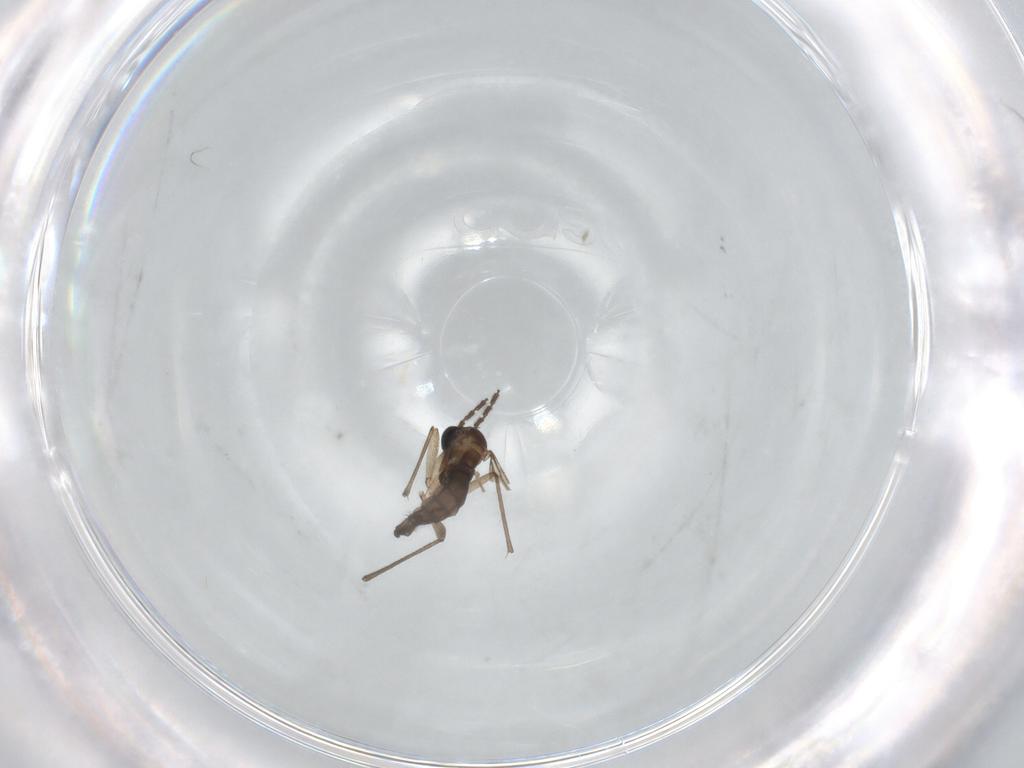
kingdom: Animalia
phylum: Arthropoda
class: Insecta
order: Diptera
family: Sciaridae
